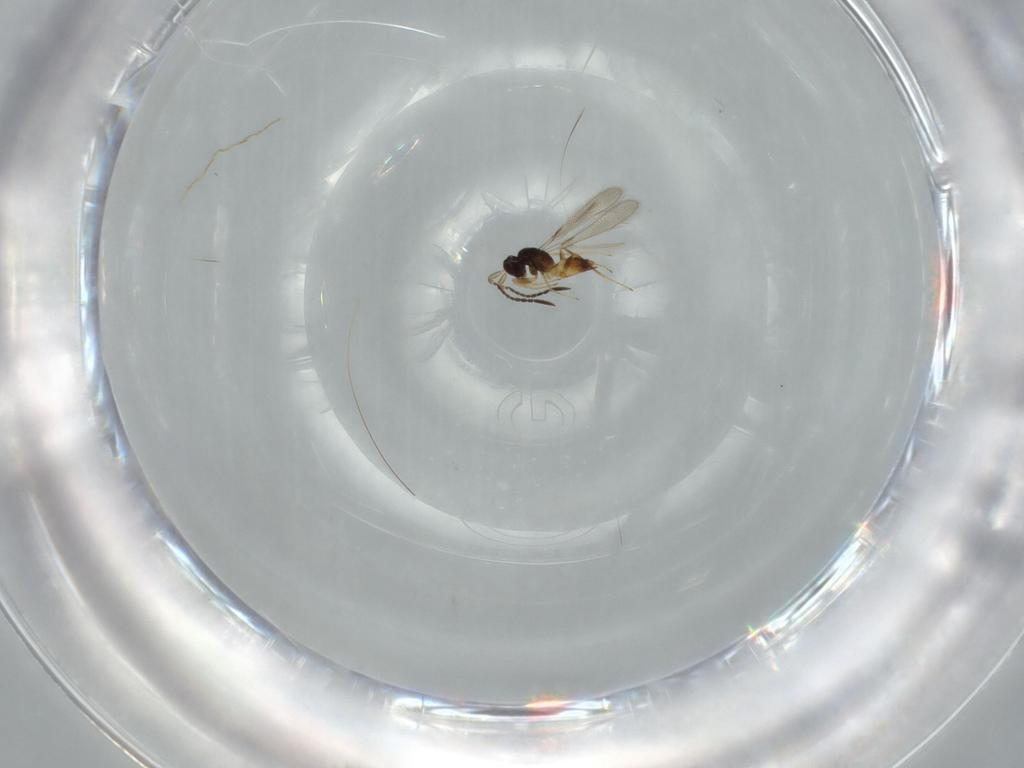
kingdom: Animalia
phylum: Arthropoda
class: Insecta
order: Hymenoptera
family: Mymaridae
